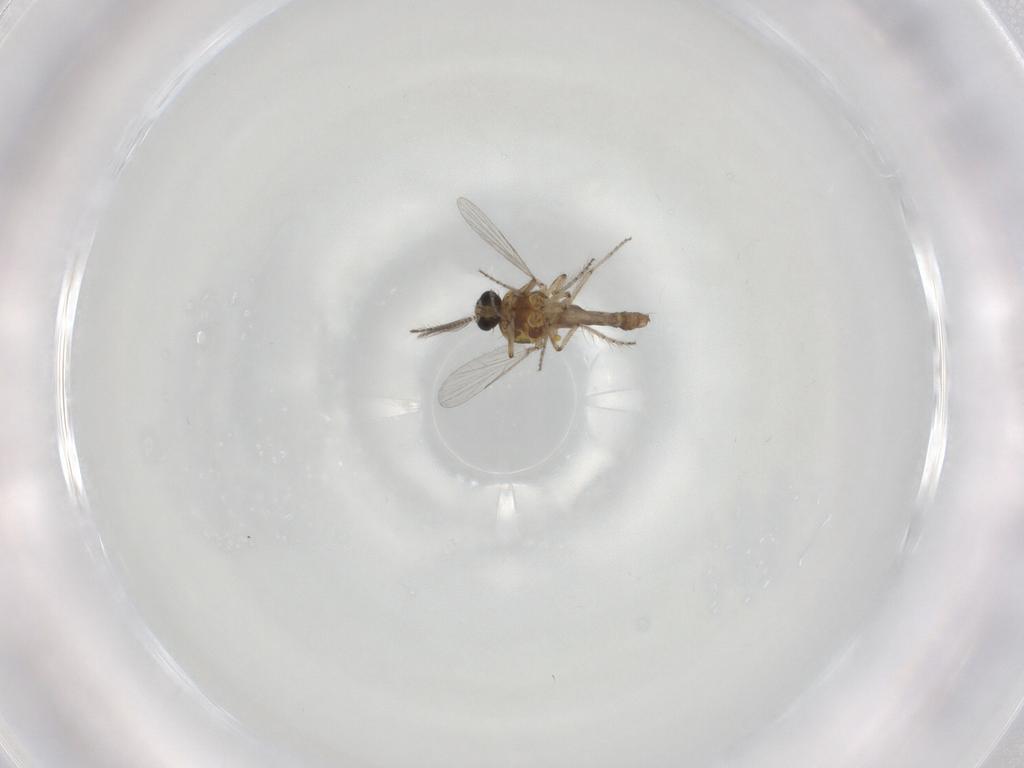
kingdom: Animalia
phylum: Arthropoda
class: Insecta
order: Diptera
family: Ceratopogonidae
